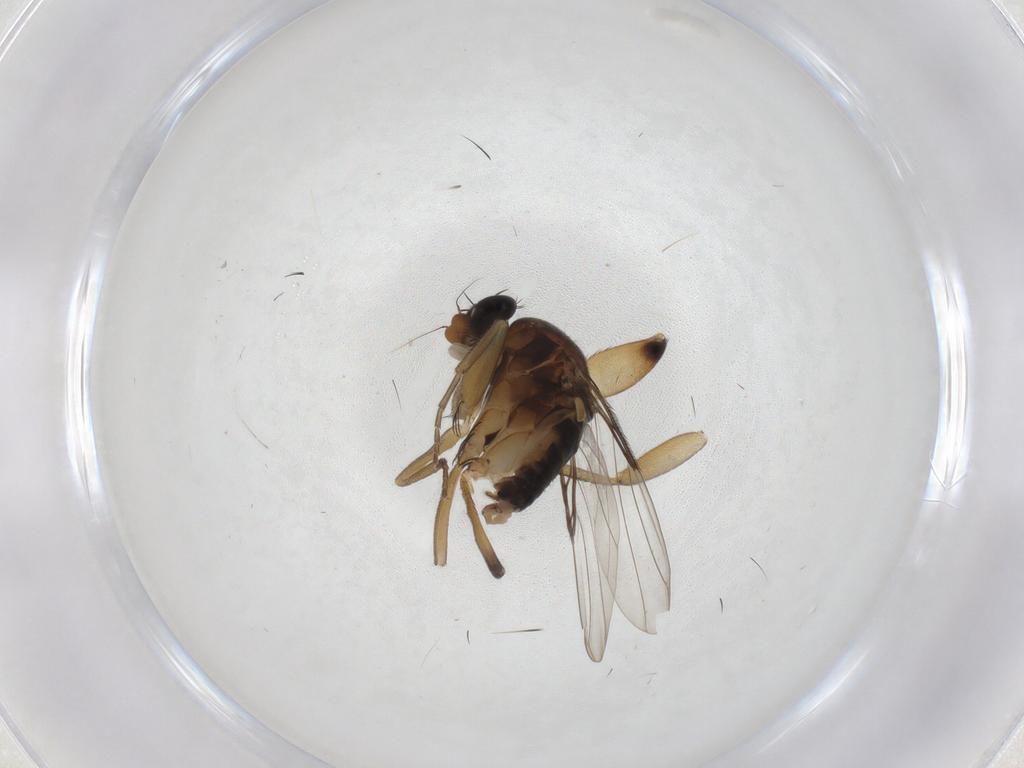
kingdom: Animalia
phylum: Arthropoda
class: Insecta
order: Diptera
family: Phoridae
